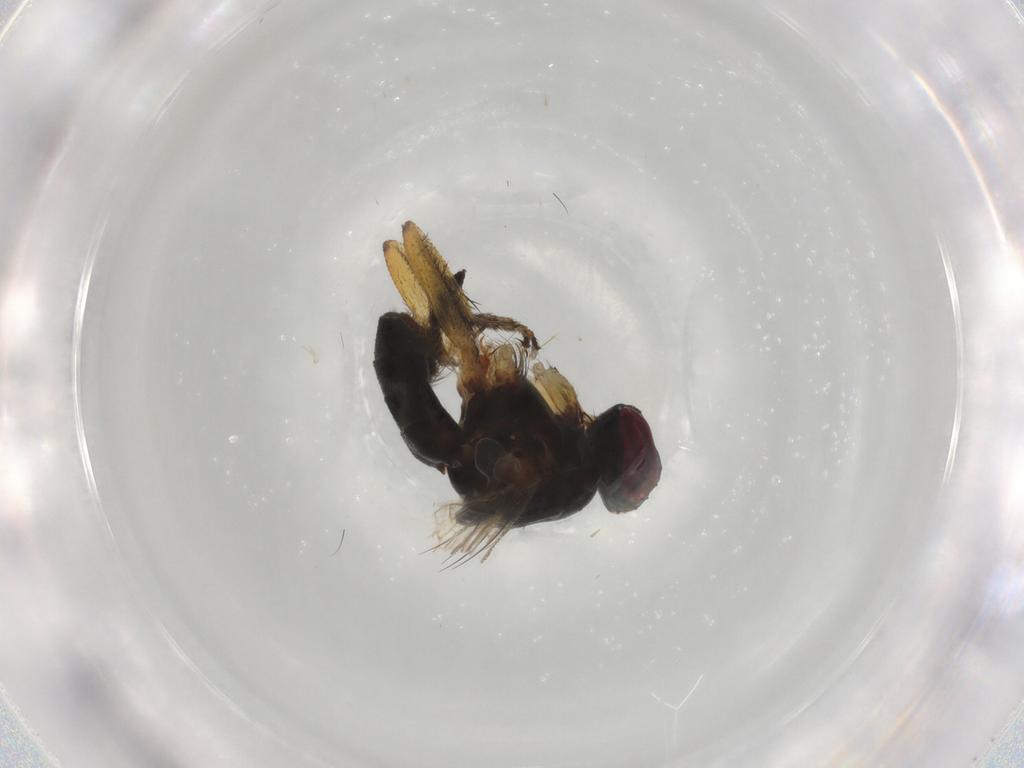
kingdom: Animalia
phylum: Arthropoda
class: Insecta
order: Diptera
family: Muscidae
